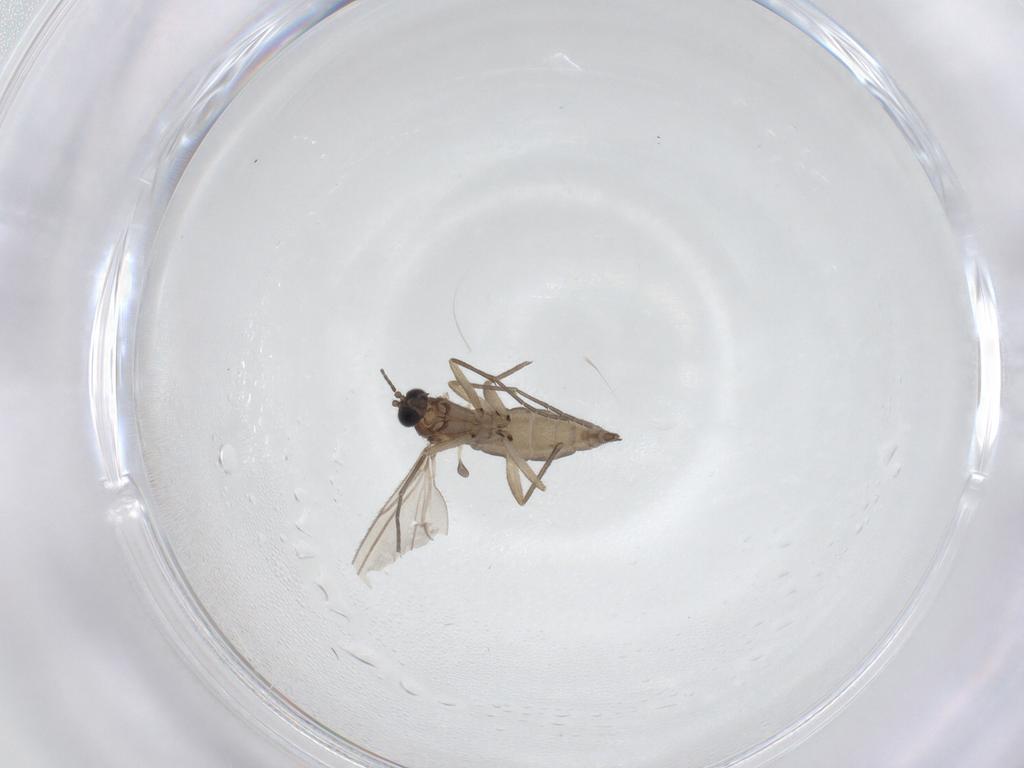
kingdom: Animalia
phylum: Arthropoda
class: Insecta
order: Diptera
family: Sciaridae
